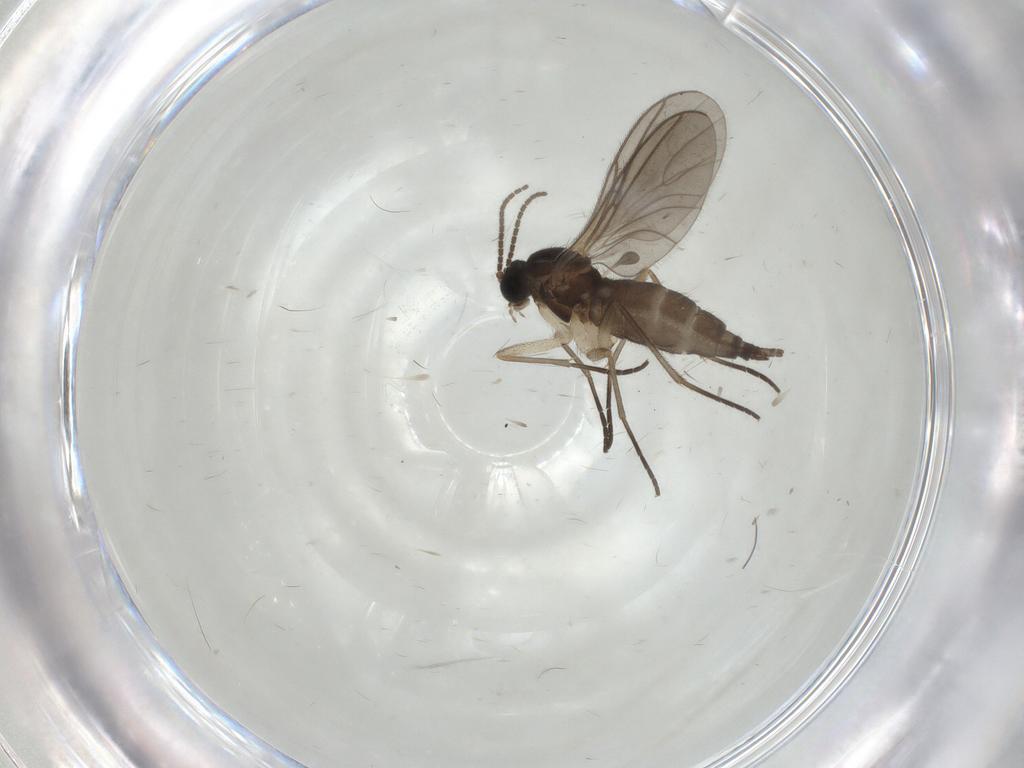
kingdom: Animalia
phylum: Arthropoda
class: Insecta
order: Diptera
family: Sciaridae
